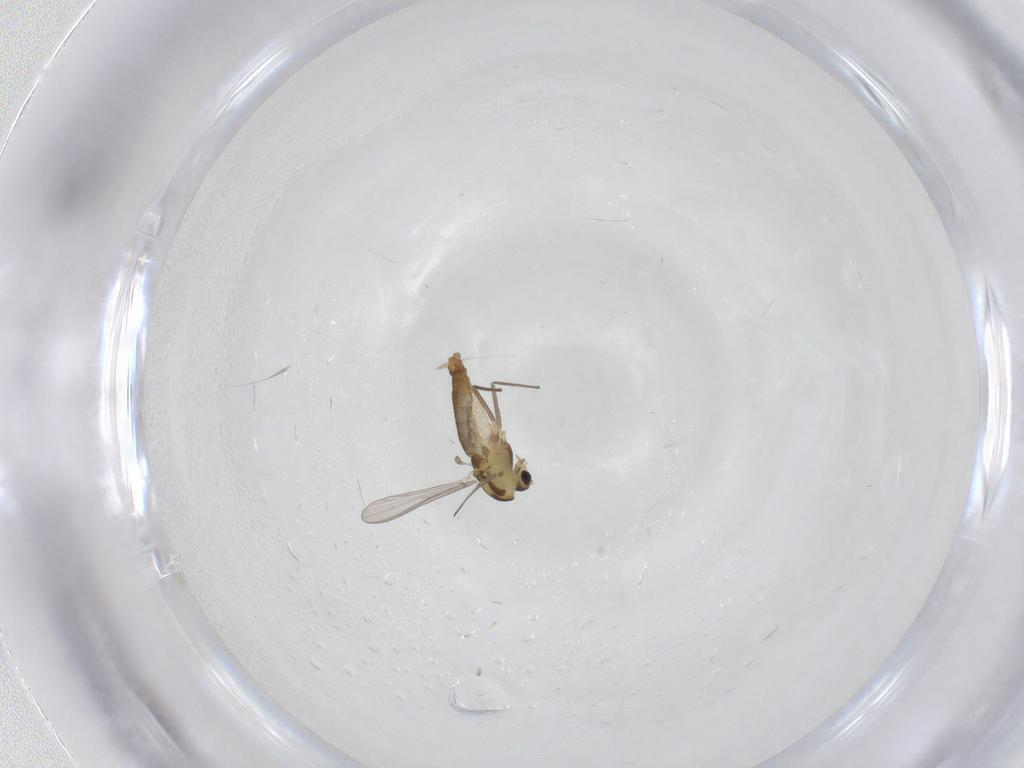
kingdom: Animalia
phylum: Arthropoda
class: Insecta
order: Diptera
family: Chironomidae
